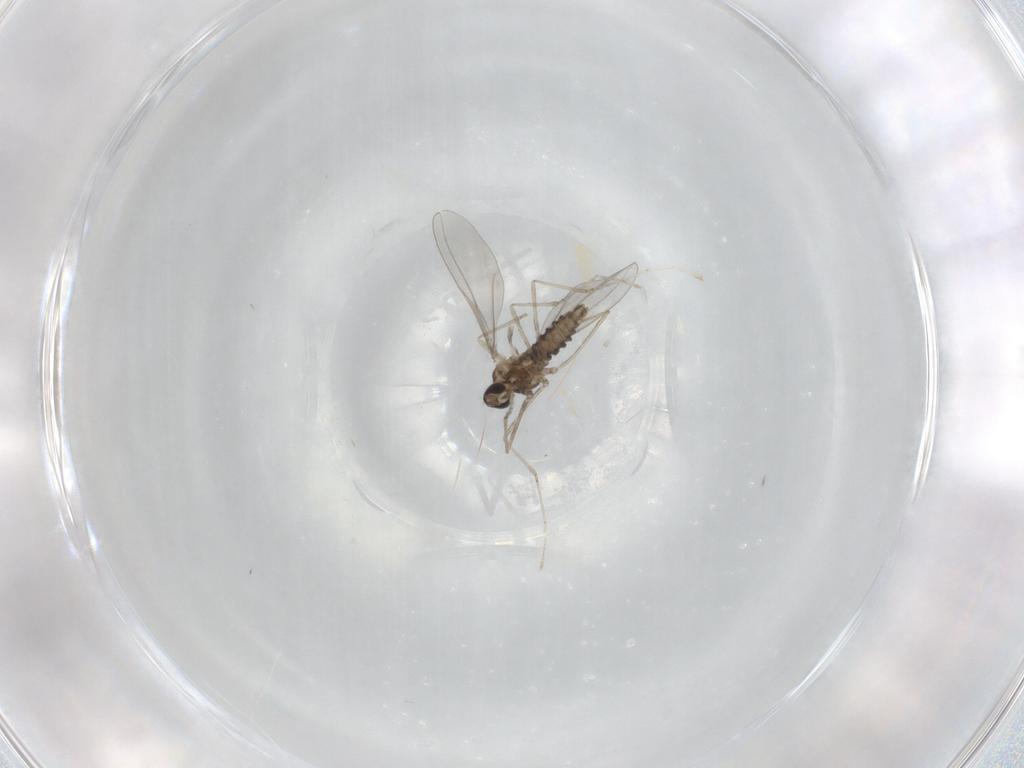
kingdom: Animalia
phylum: Arthropoda
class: Insecta
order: Diptera
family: Cecidomyiidae
